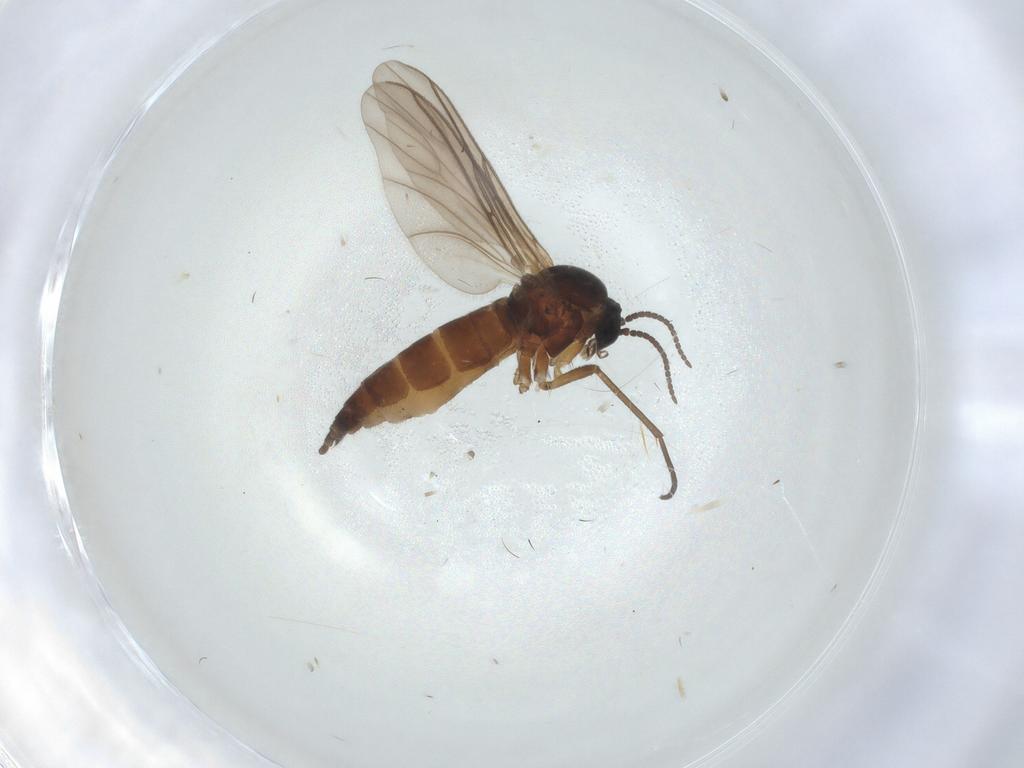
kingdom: Animalia
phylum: Arthropoda
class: Insecta
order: Diptera
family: Sciaridae
